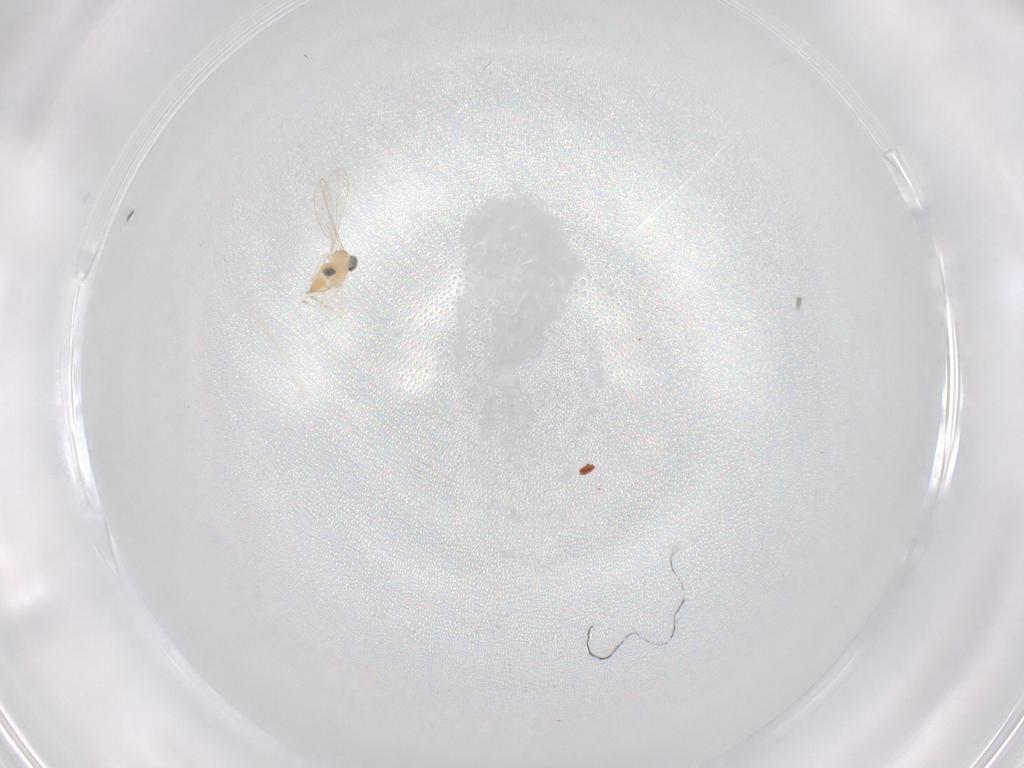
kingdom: Animalia
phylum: Arthropoda
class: Insecta
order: Diptera
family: Cecidomyiidae
